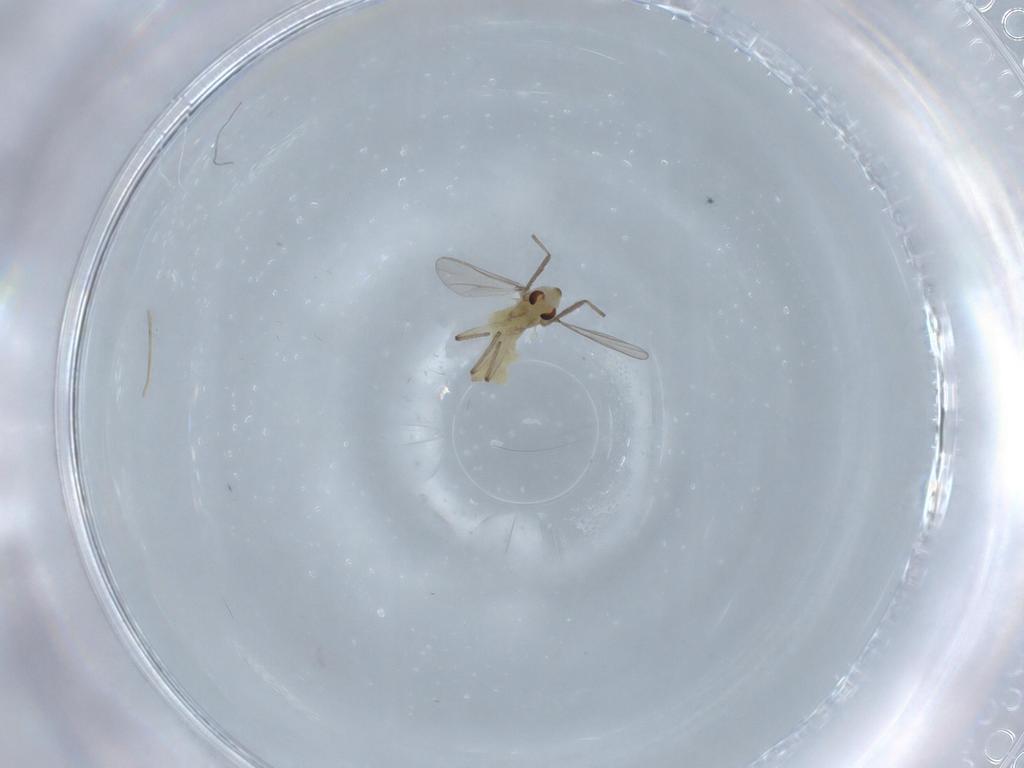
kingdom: Animalia
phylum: Arthropoda
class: Insecta
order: Diptera
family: Chironomidae
